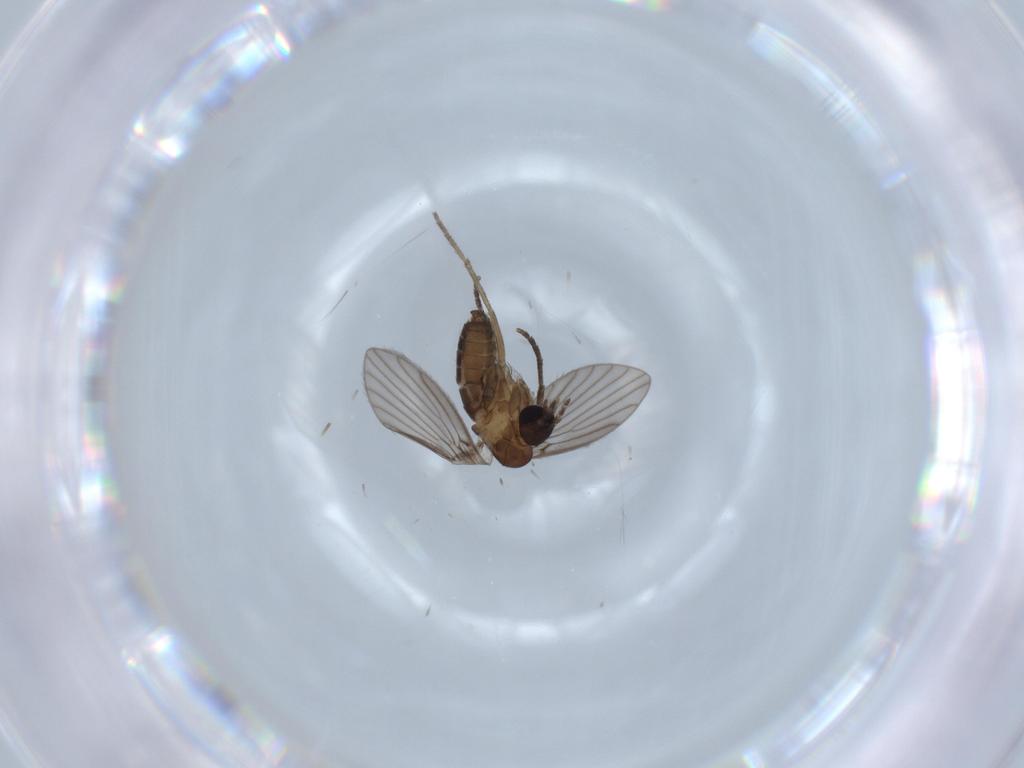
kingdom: Animalia
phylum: Arthropoda
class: Insecta
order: Diptera
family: Psychodidae
